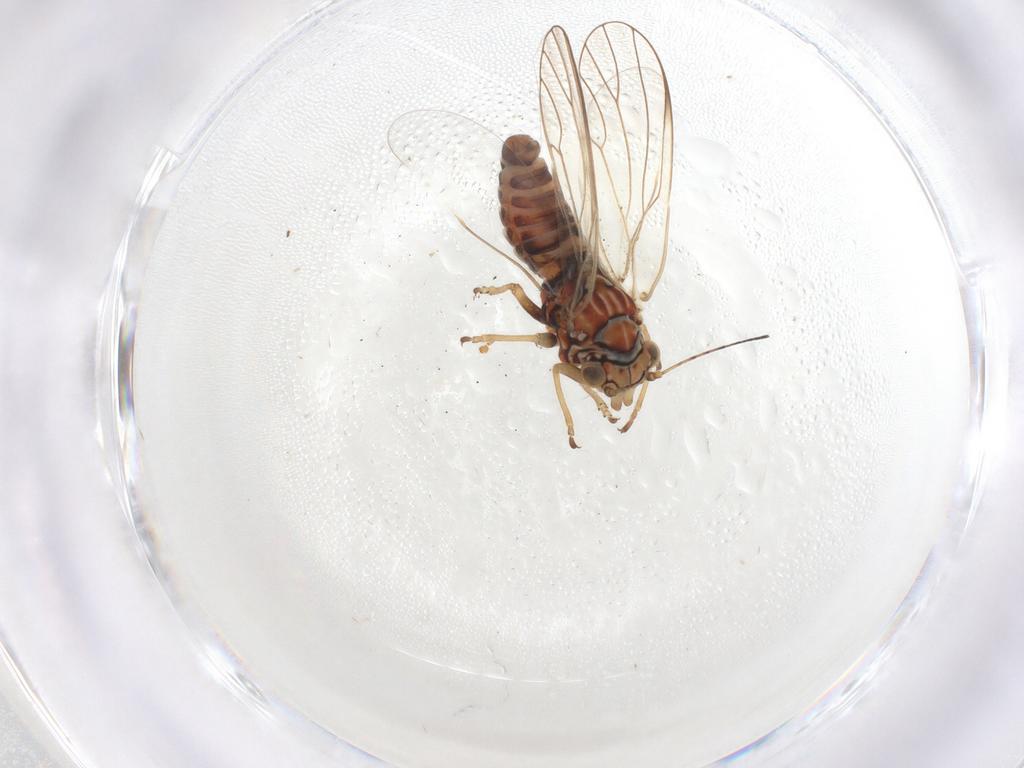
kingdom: Animalia
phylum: Arthropoda
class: Insecta
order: Hemiptera
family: Psyllidae
